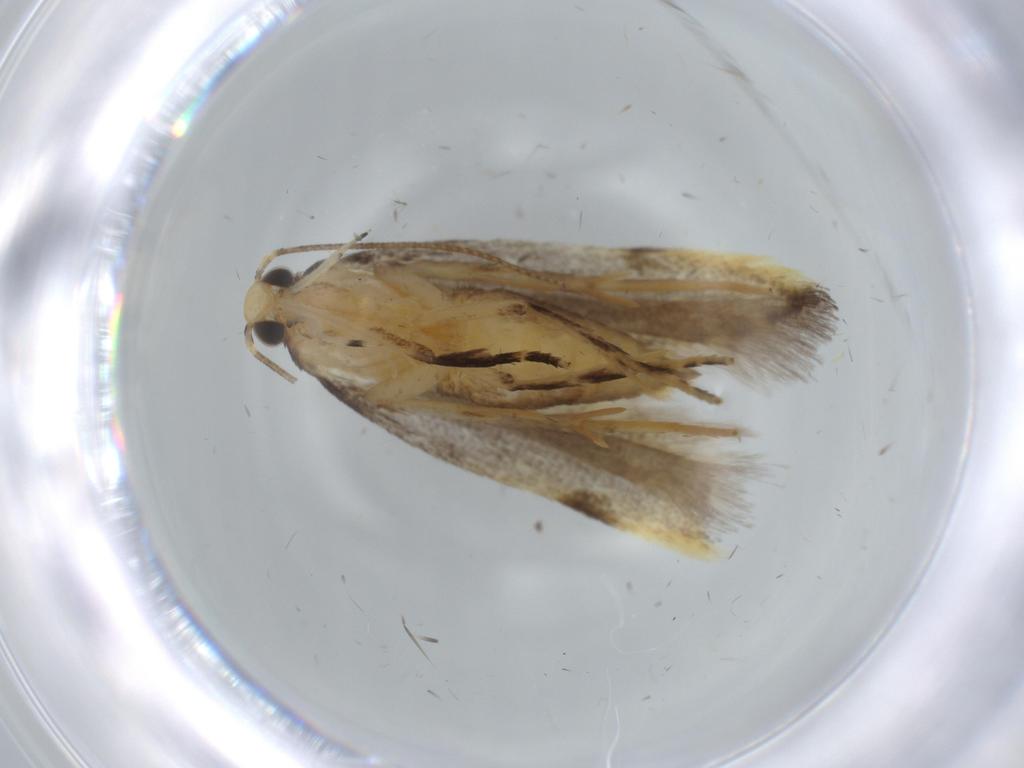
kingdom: Animalia
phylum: Arthropoda
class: Insecta
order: Lepidoptera
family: Autostichidae
